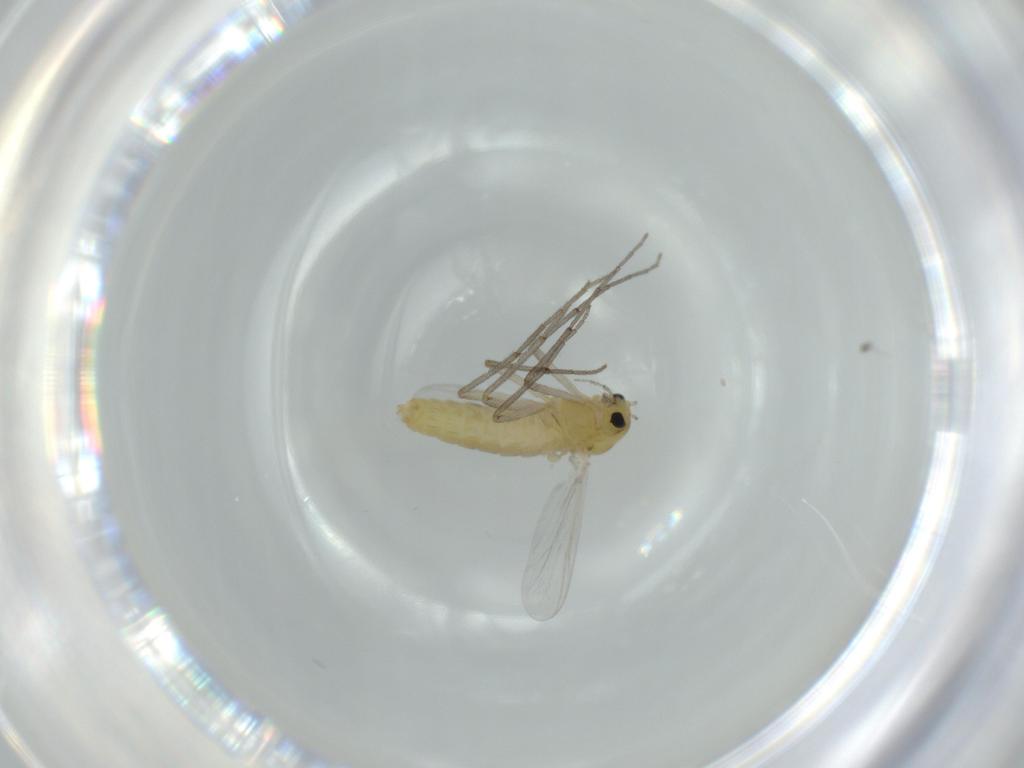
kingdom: Animalia
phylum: Arthropoda
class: Insecta
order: Diptera
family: Chironomidae
